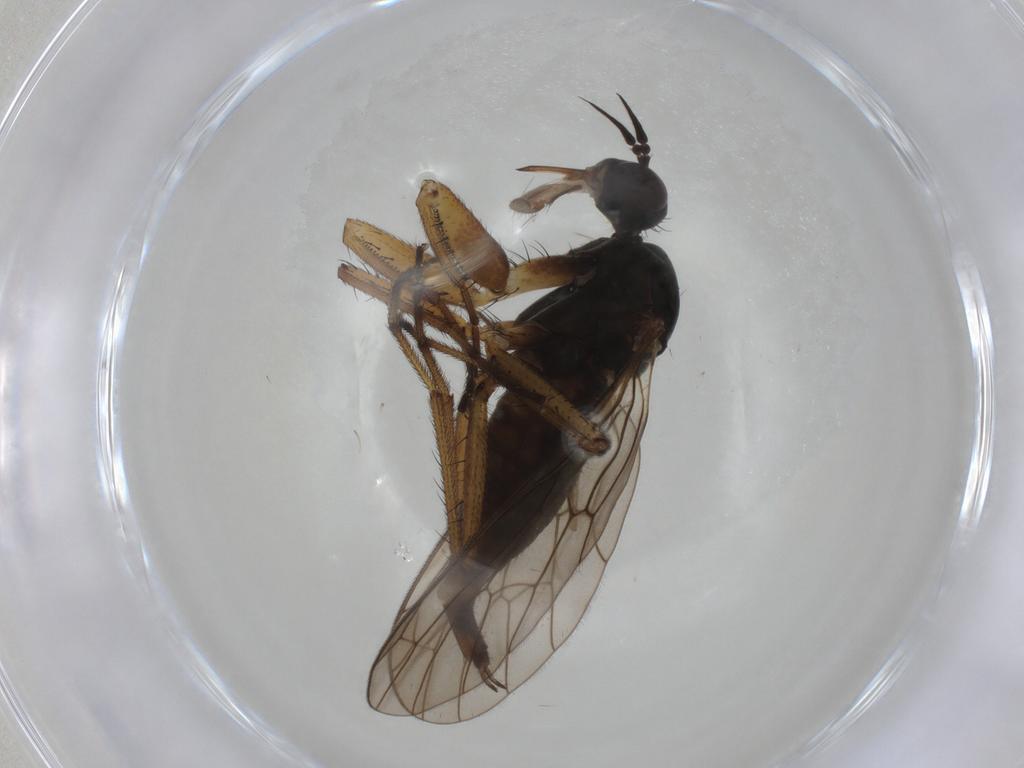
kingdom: Animalia
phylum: Arthropoda
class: Insecta
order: Diptera
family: Empididae
